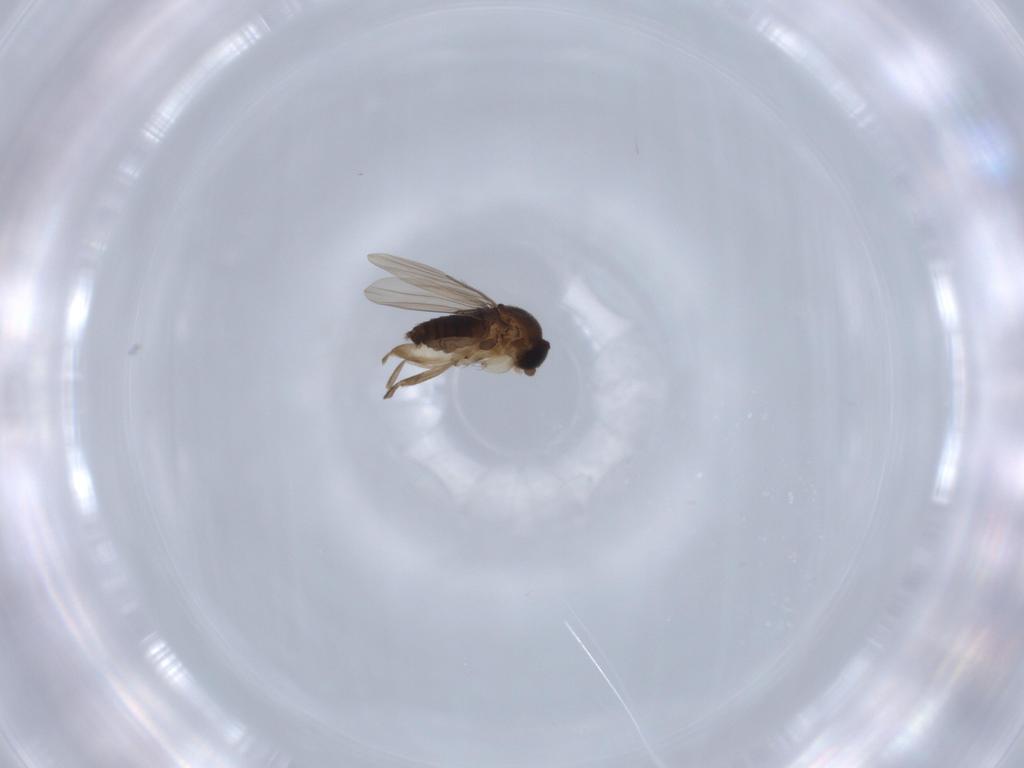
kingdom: Animalia
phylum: Arthropoda
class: Insecta
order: Diptera
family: Phoridae
